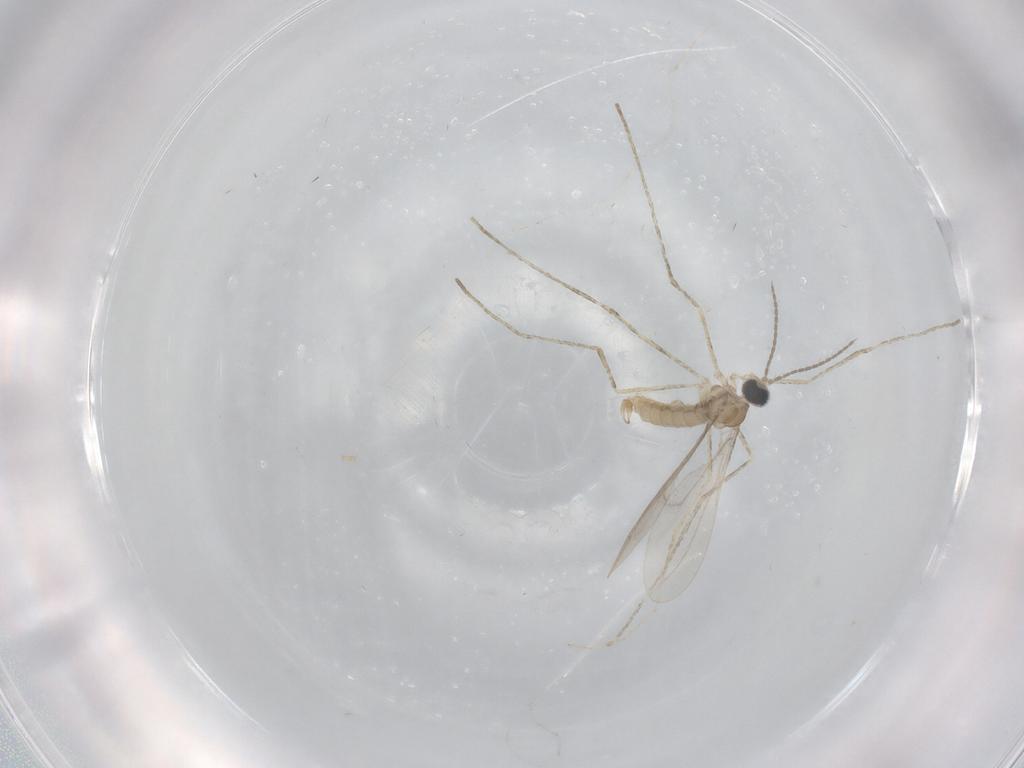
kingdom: Animalia
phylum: Arthropoda
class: Insecta
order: Diptera
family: Cecidomyiidae
